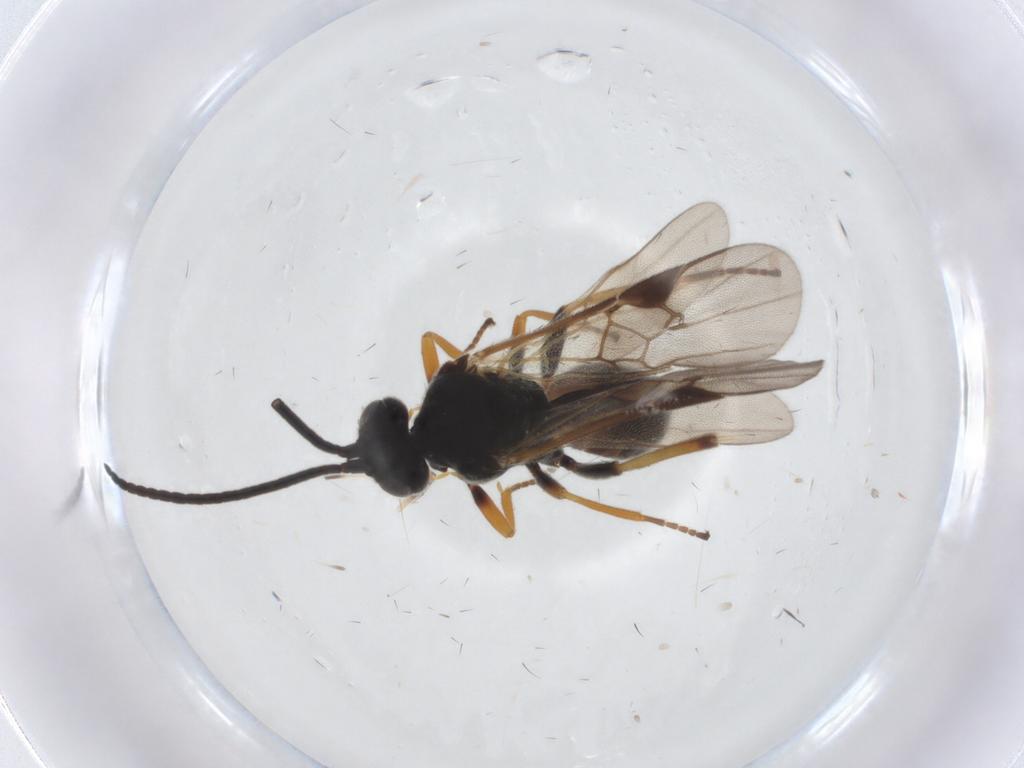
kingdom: Animalia
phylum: Arthropoda
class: Insecta
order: Hymenoptera
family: Braconidae
